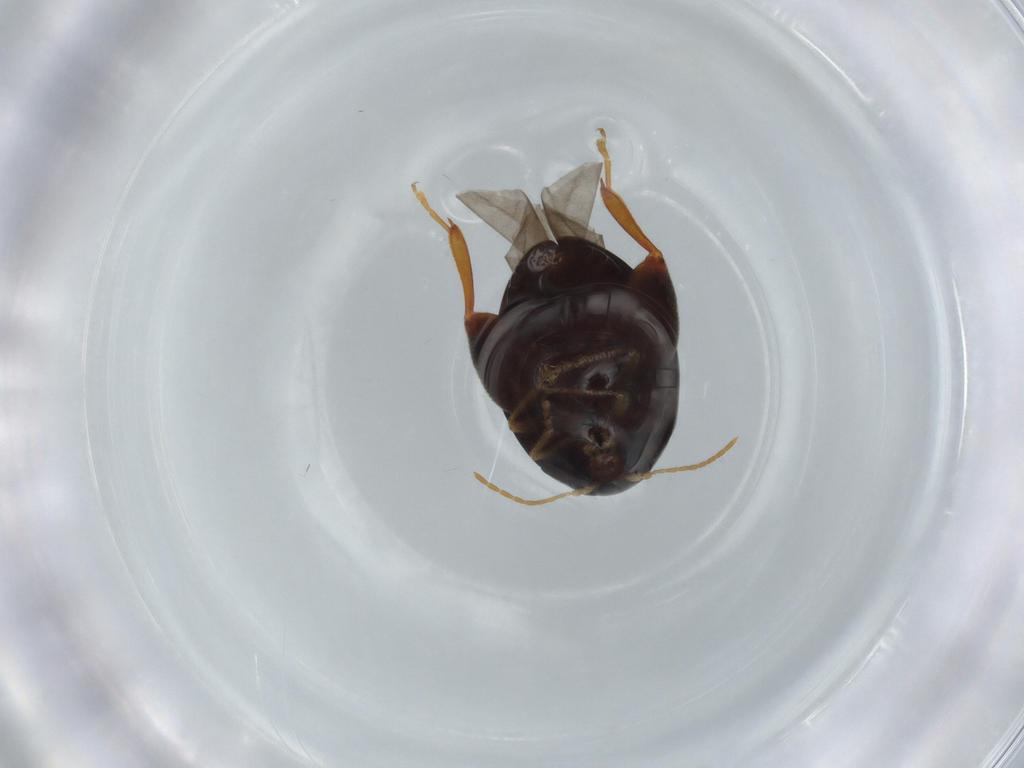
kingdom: Animalia
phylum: Arthropoda
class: Insecta
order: Coleoptera
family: Chrysomelidae
